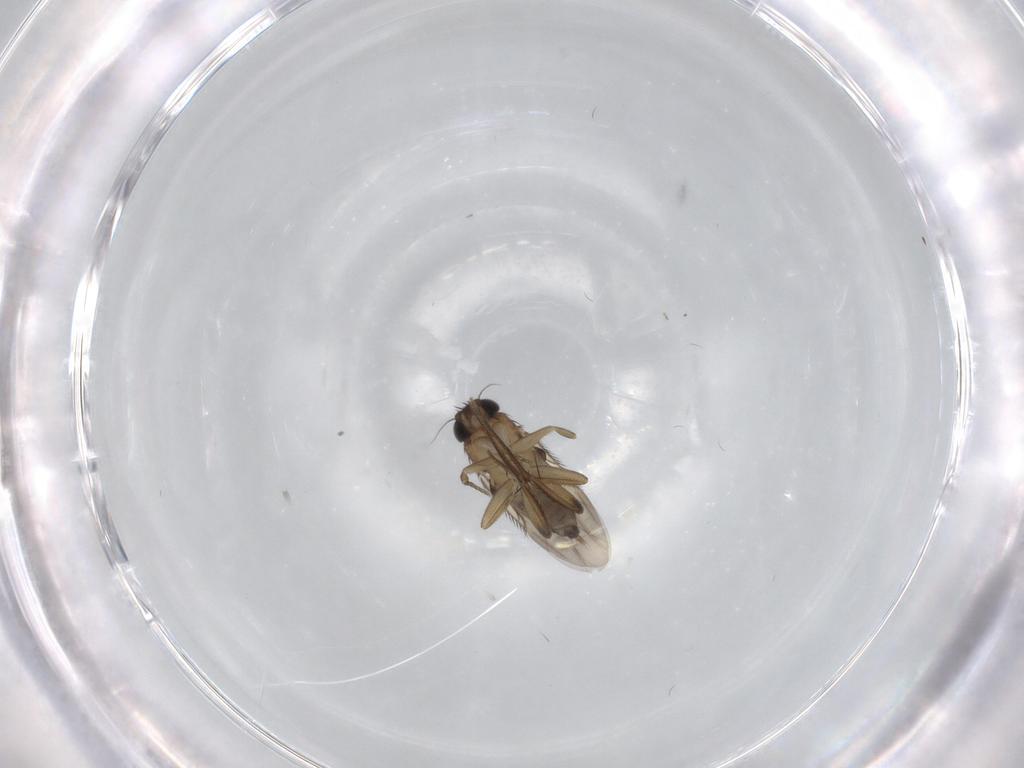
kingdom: Animalia
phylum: Arthropoda
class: Insecta
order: Diptera
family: Phoridae
